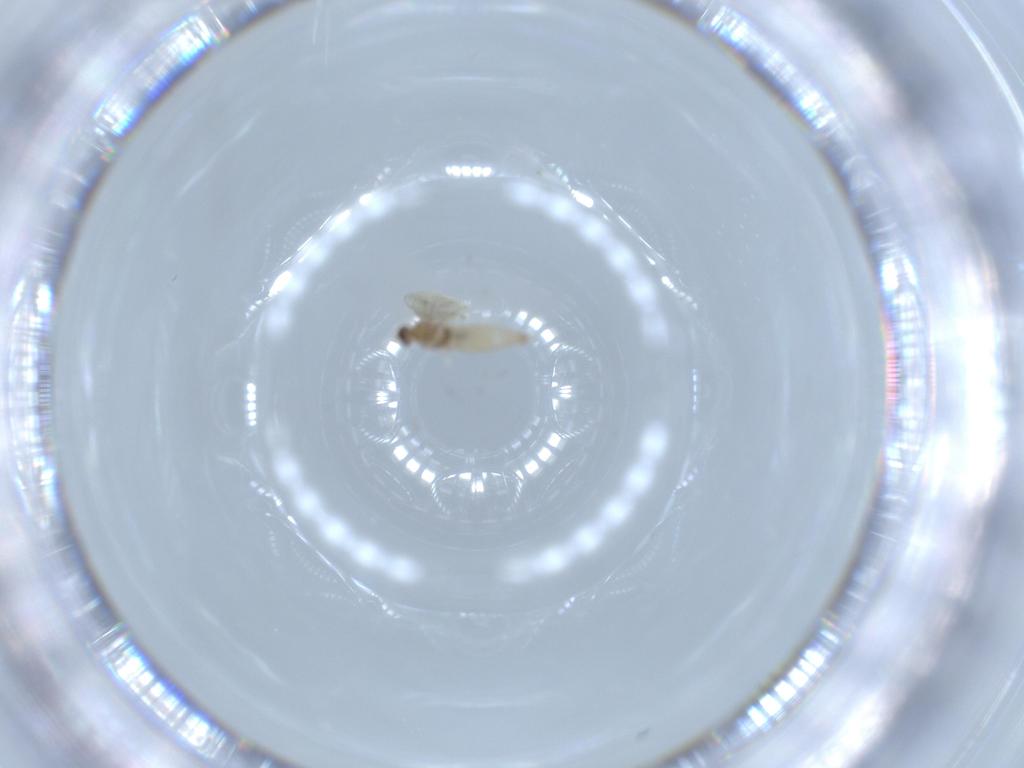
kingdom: Animalia
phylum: Arthropoda
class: Insecta
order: Diptera
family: Cecidomyiidae
